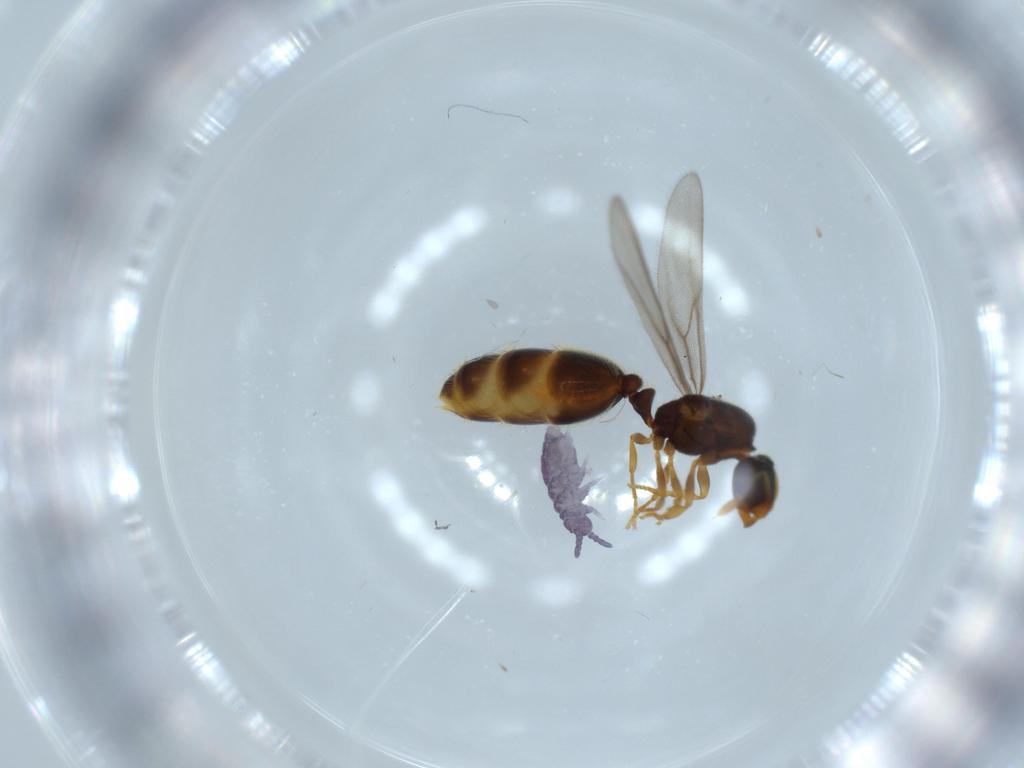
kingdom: Animalia
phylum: Arthropoda
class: Insecta
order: Hymenoptera
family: Formicidae
